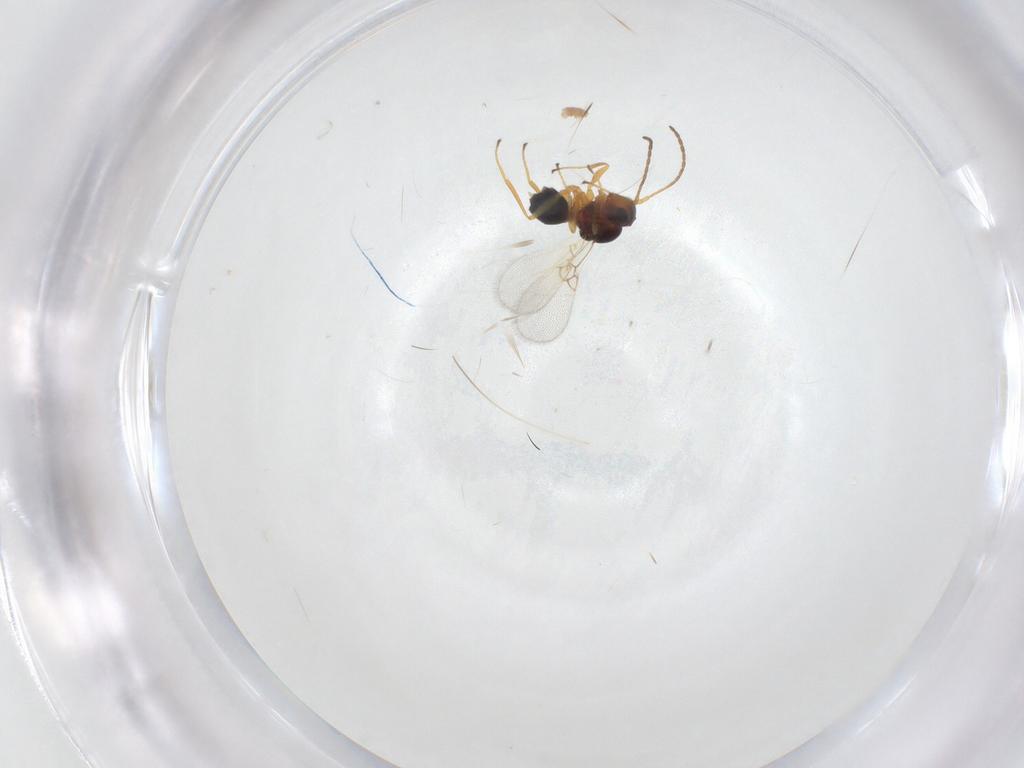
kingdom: Animalia
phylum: Arthropoda
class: Insecta
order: Hymenoptera
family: Figitidae
